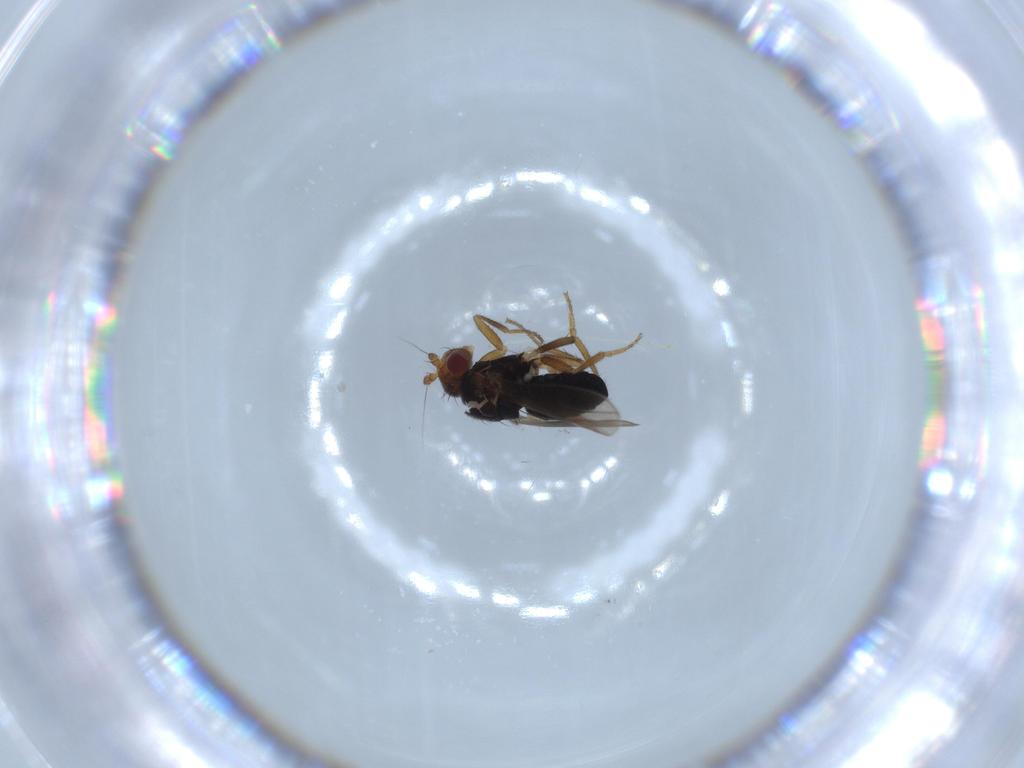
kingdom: Animalia
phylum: Arthropoda
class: Insecta
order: Diptera
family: Sphaeroceridae
